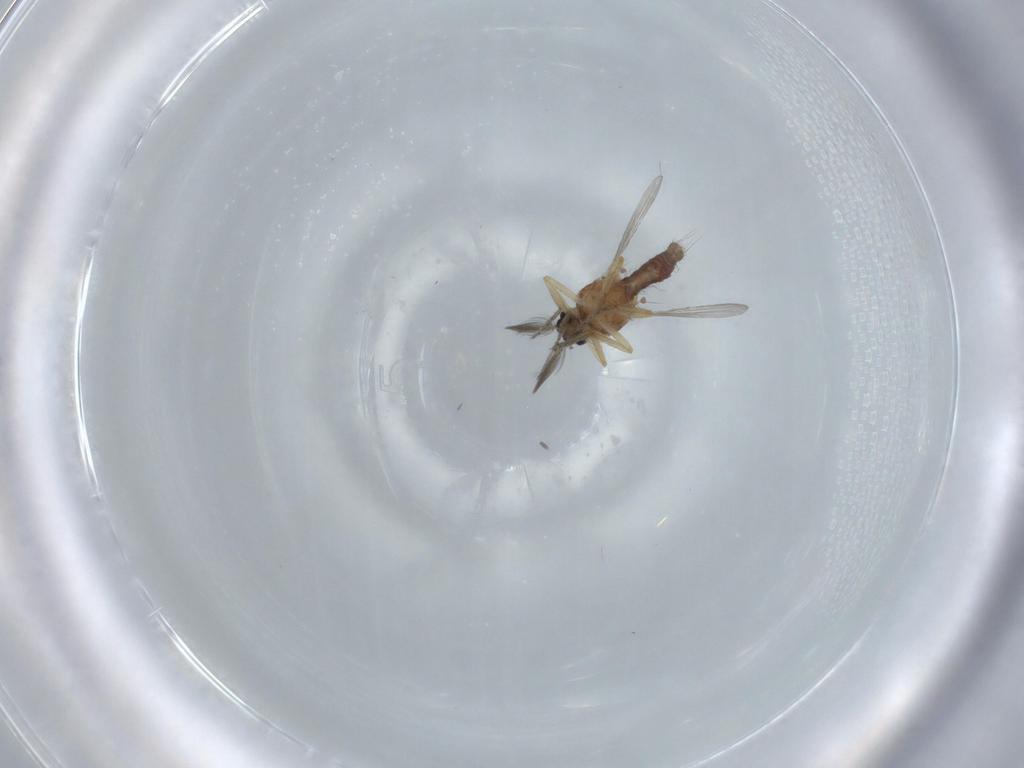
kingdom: Animalia
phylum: Arthropoda
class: Insecta
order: Diptera
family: Ceratopogonidae
